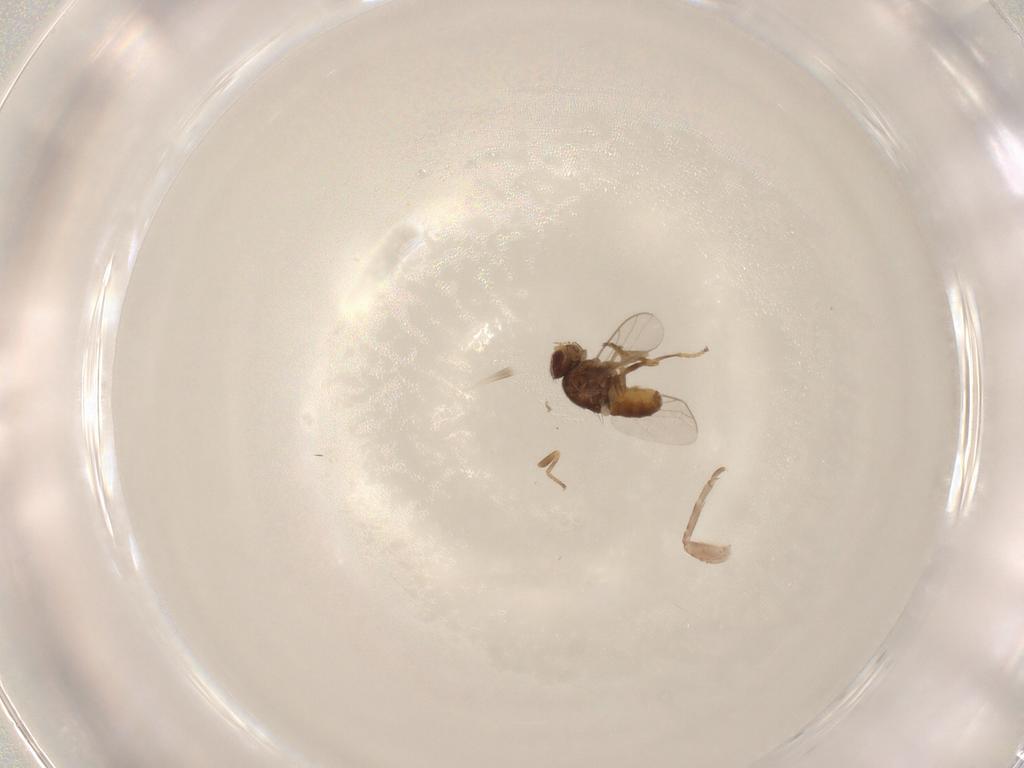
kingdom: Animalia
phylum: Arthropoda
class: Insecta
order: Diptera
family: Chloropidae
